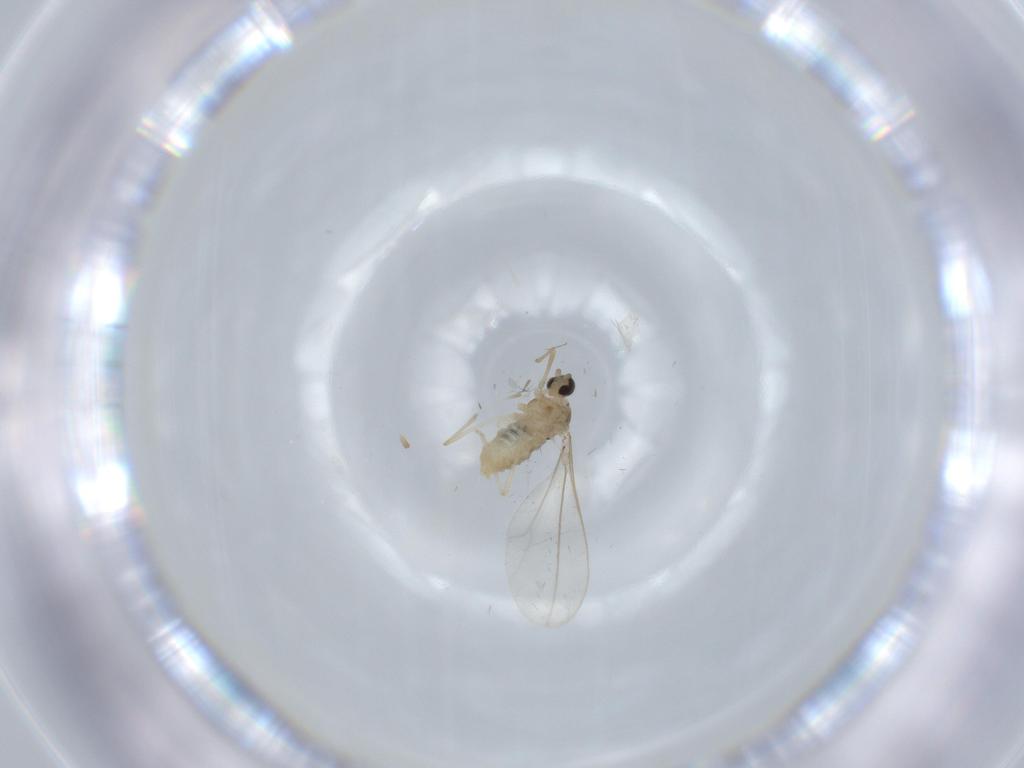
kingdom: Animalia
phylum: Arthropoda
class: Insecta
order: Diptera
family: Cecidomyiidae
